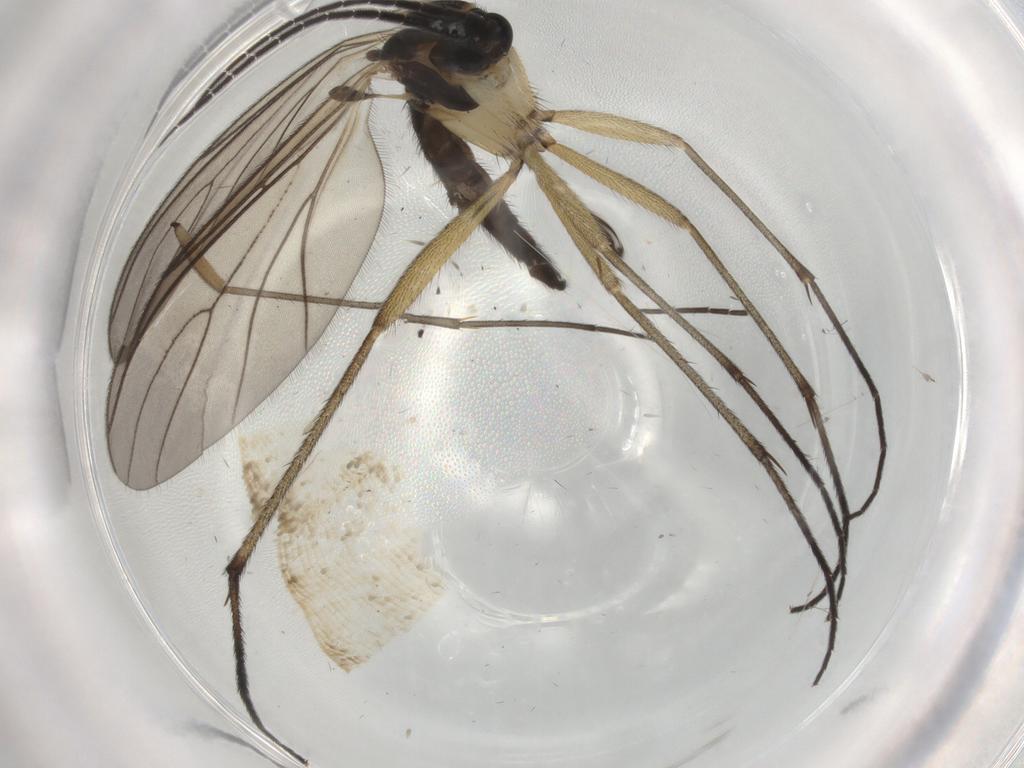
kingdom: Animalia
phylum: Arthropoda
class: Insecta
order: Diptera
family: Sciaridae
